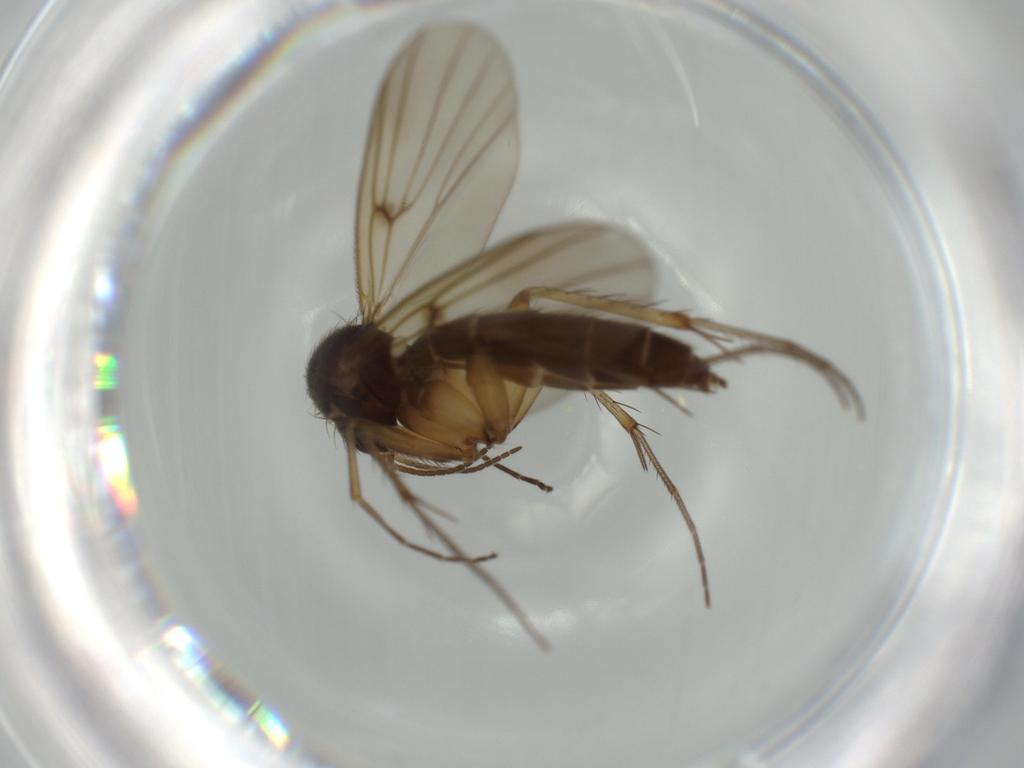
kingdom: Animalia
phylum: Arthropoda
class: Insecta
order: Diptera
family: Mycetophilidae
